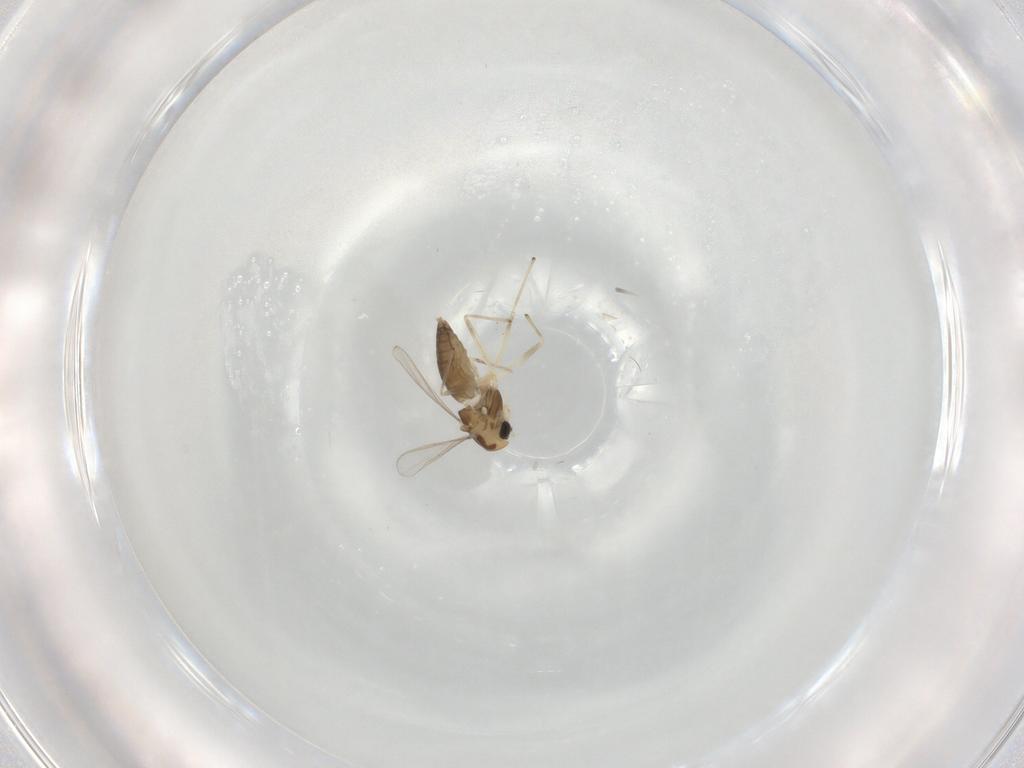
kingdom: Animalia
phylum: Arthropoda
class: Insecta
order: Diptera
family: Chironomidae
